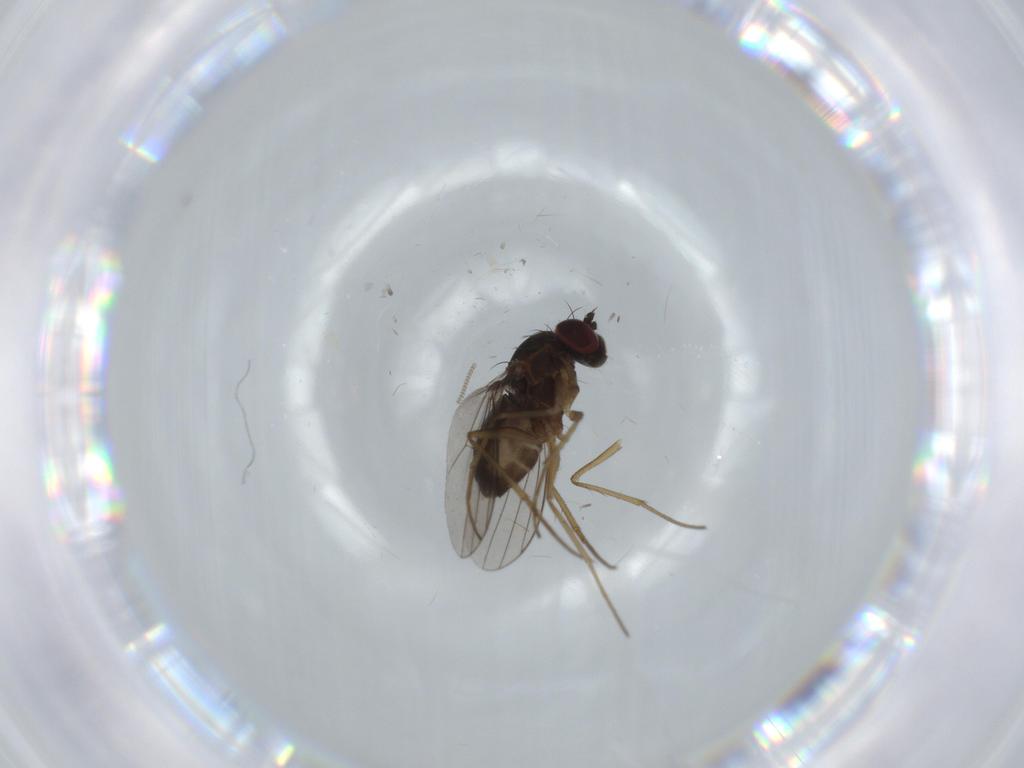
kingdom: Animalia
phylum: Arthropoda
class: Insecta
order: Diptera
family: Dolichopodidae
